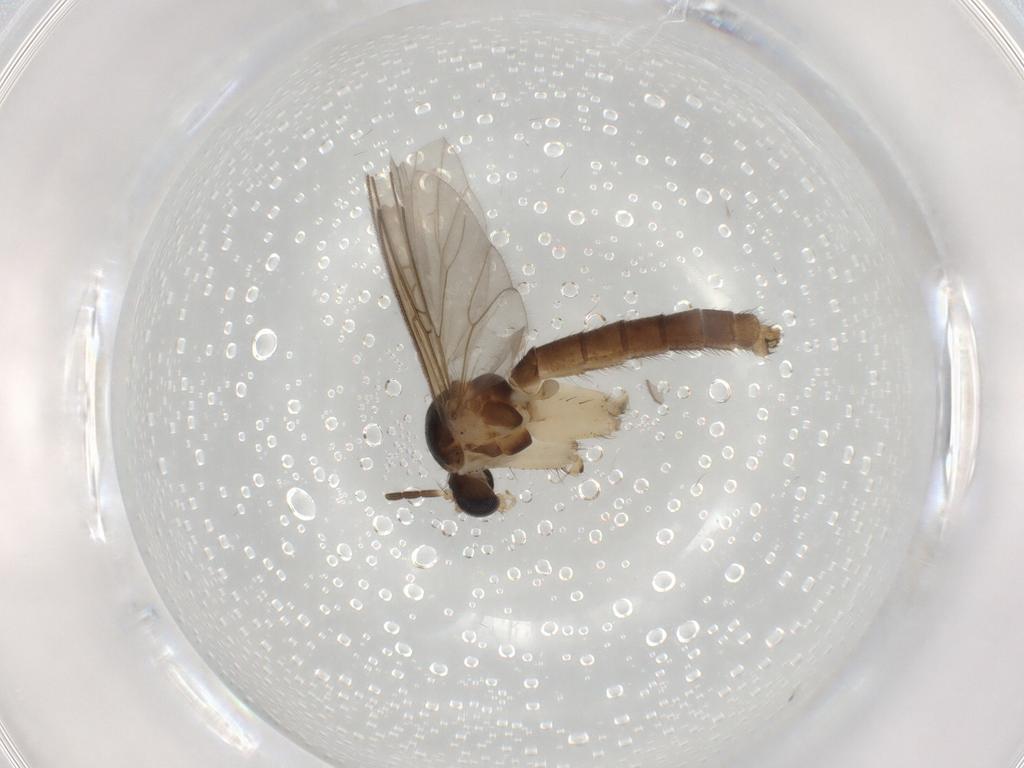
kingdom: Animalia
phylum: Arthropoda
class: Insecta
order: Diptera
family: Mycetophilidae
